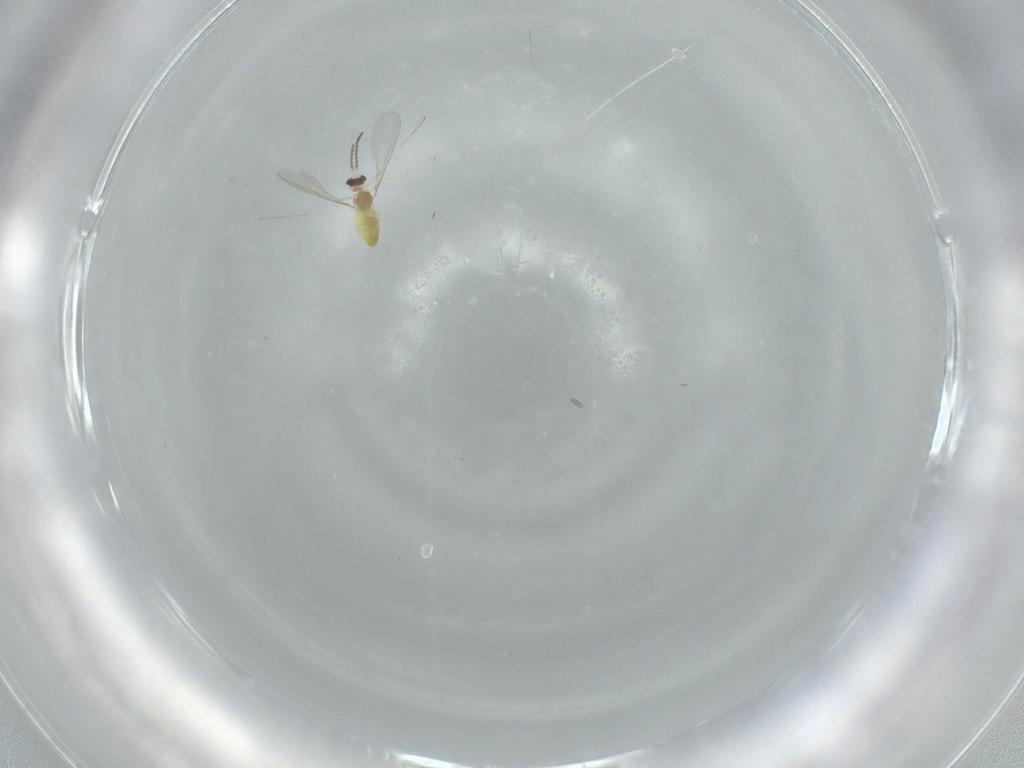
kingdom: Animalia
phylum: Arthropoda
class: Insecta
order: Diptera
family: Cecidomyiidae
